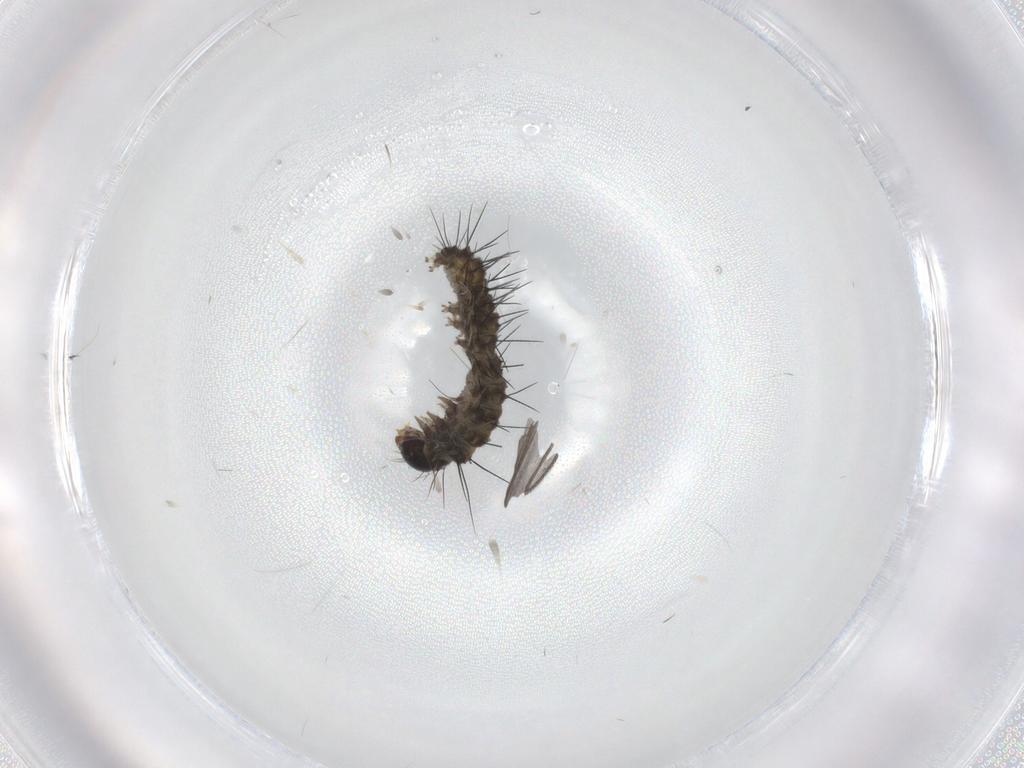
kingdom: Animalia
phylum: Arthropoda
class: Insecta
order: Lepidoptera
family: Erebidae
